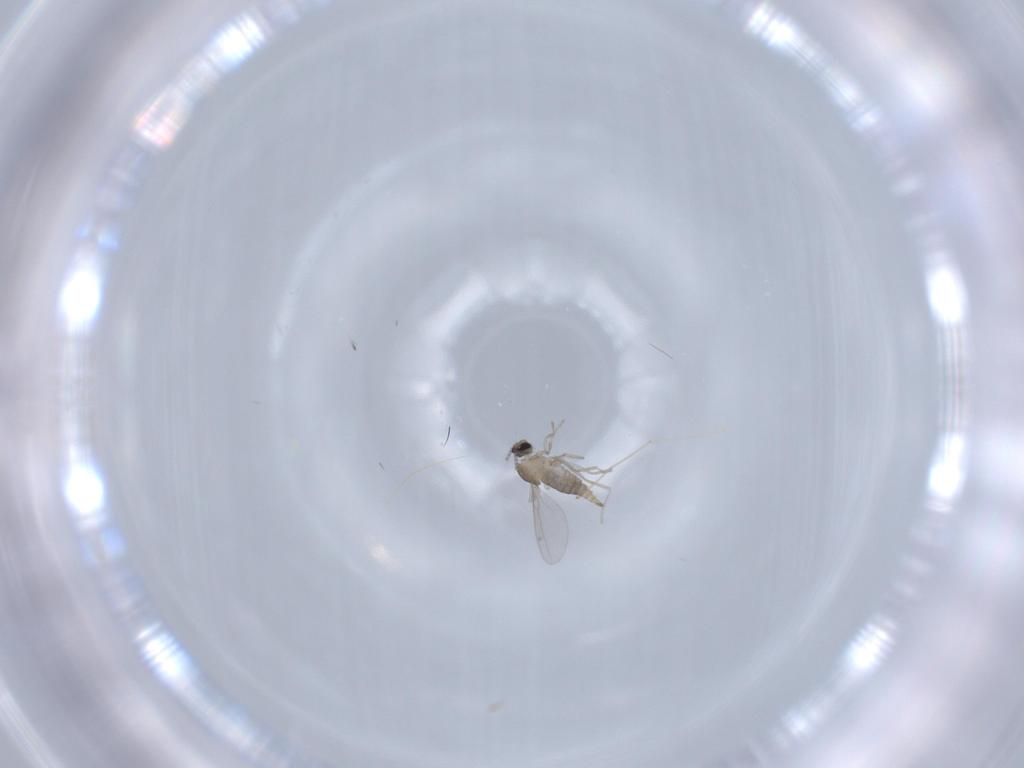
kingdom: Animalia
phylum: Arthropoda
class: Insecta
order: Diptera
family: Cecidomyiidae
